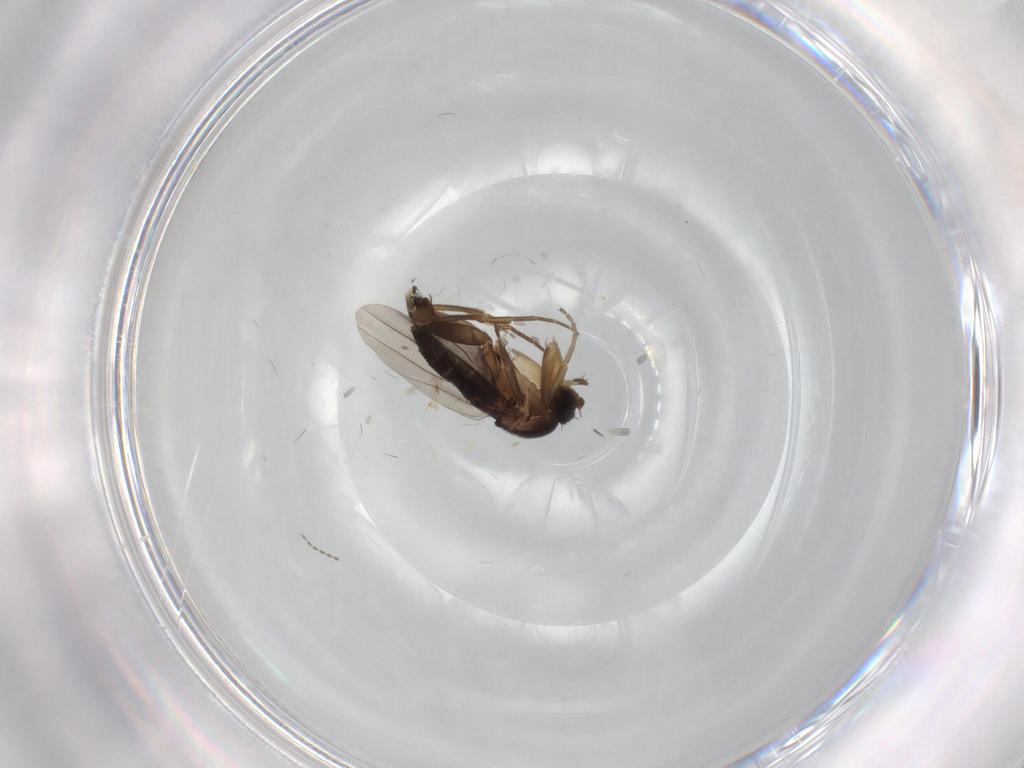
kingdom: Animalia
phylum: Arthropoda
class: Insecta
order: Diptera
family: Phoridae
